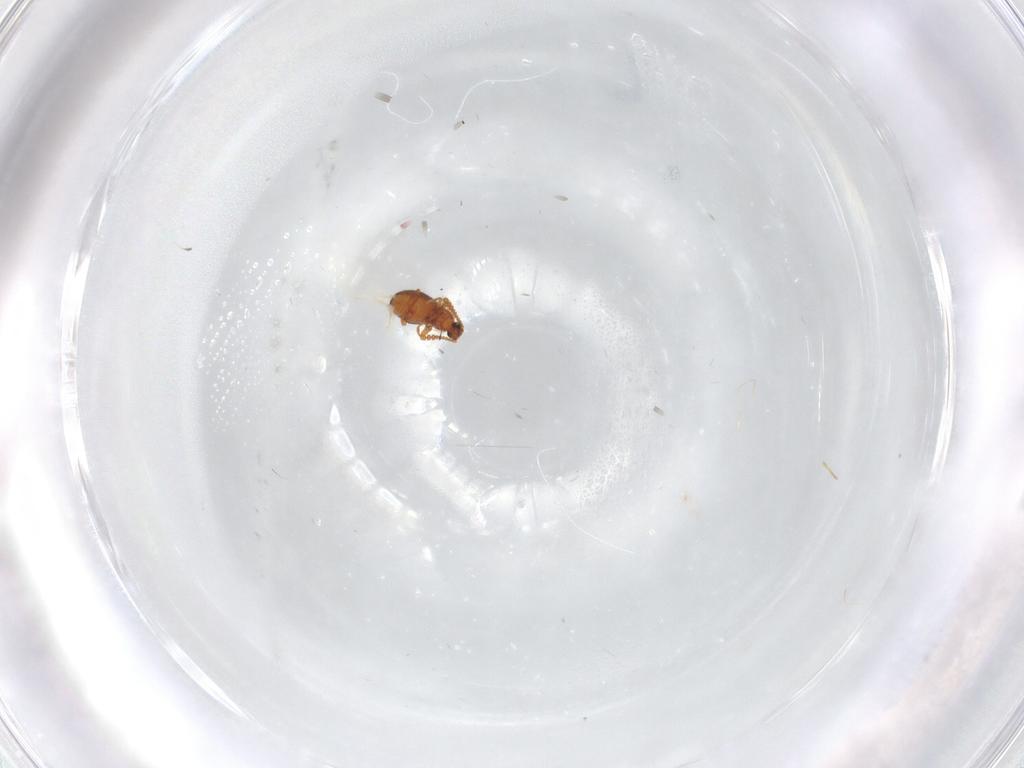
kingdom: Animalia
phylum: Arthropoda
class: Insecta
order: Coleoptera
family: Staphylinidae
